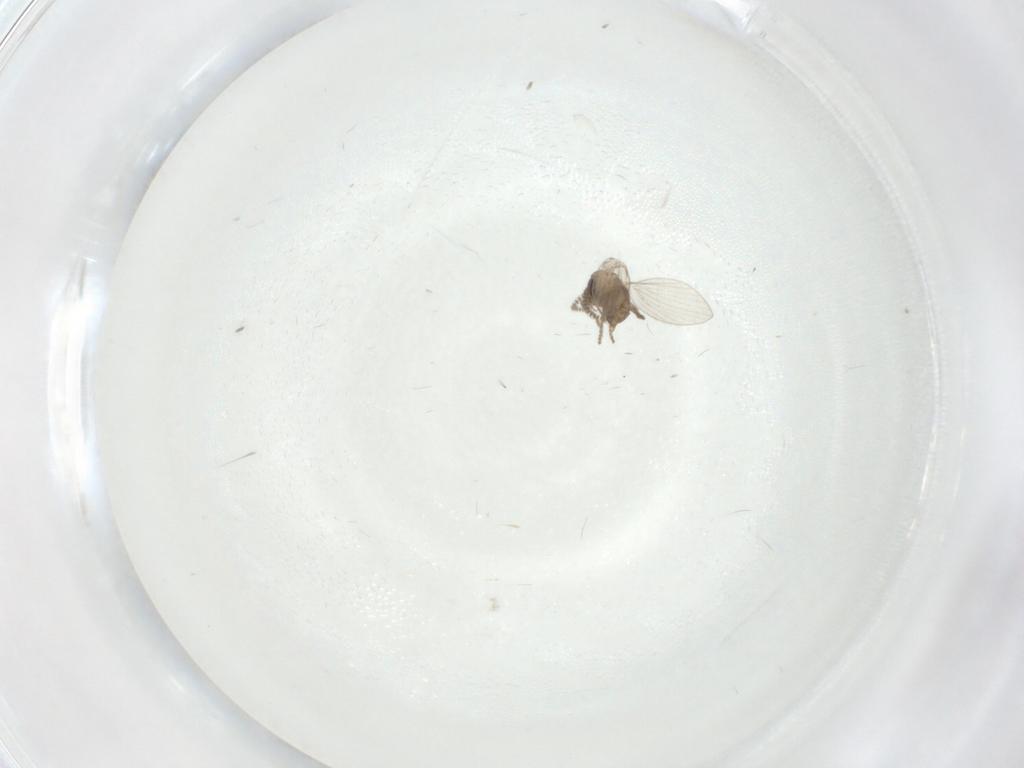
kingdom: Animalia
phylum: Arthropoda
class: Insecta
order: Diptera
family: Psychodidae
